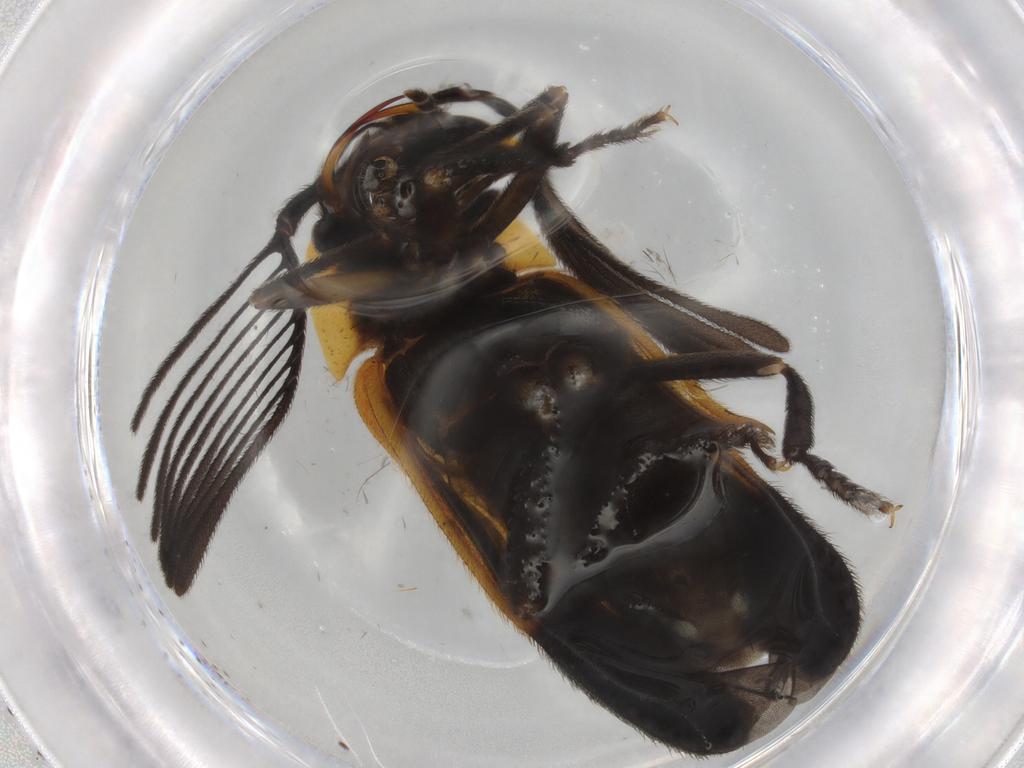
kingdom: Animalia
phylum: Arthropoda
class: Insecta
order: Coleoptera
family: Lampyridae
